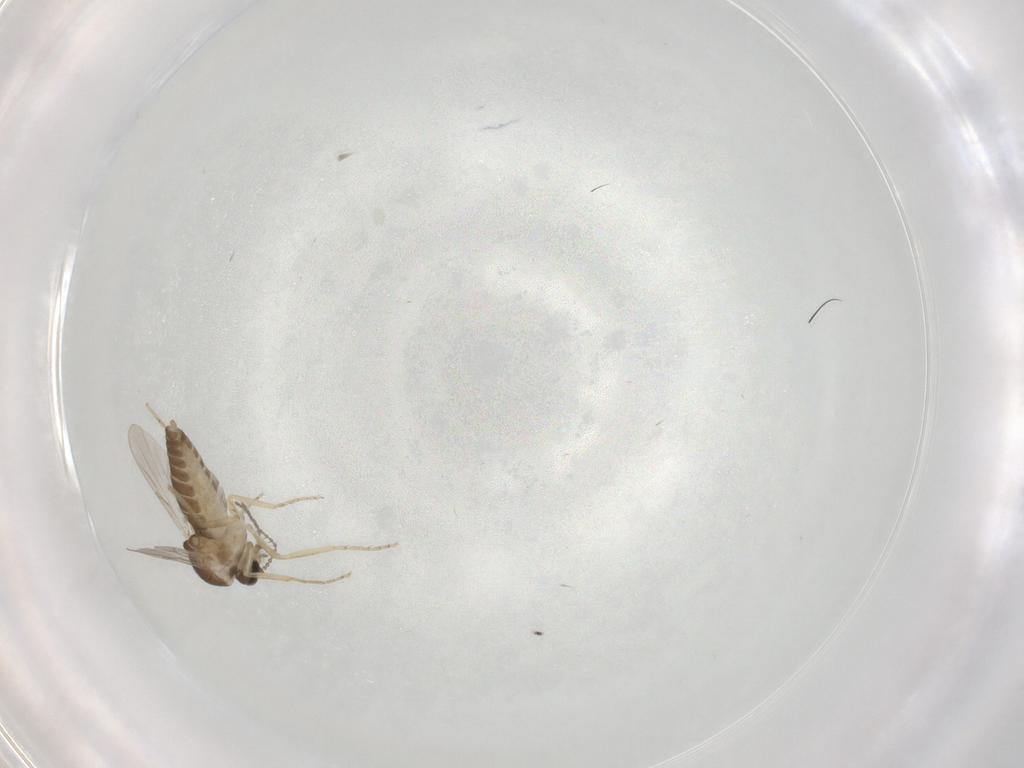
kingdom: Animalia
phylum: Arthropoda
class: Insecta
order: Diptera
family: Ceratopogonidae
